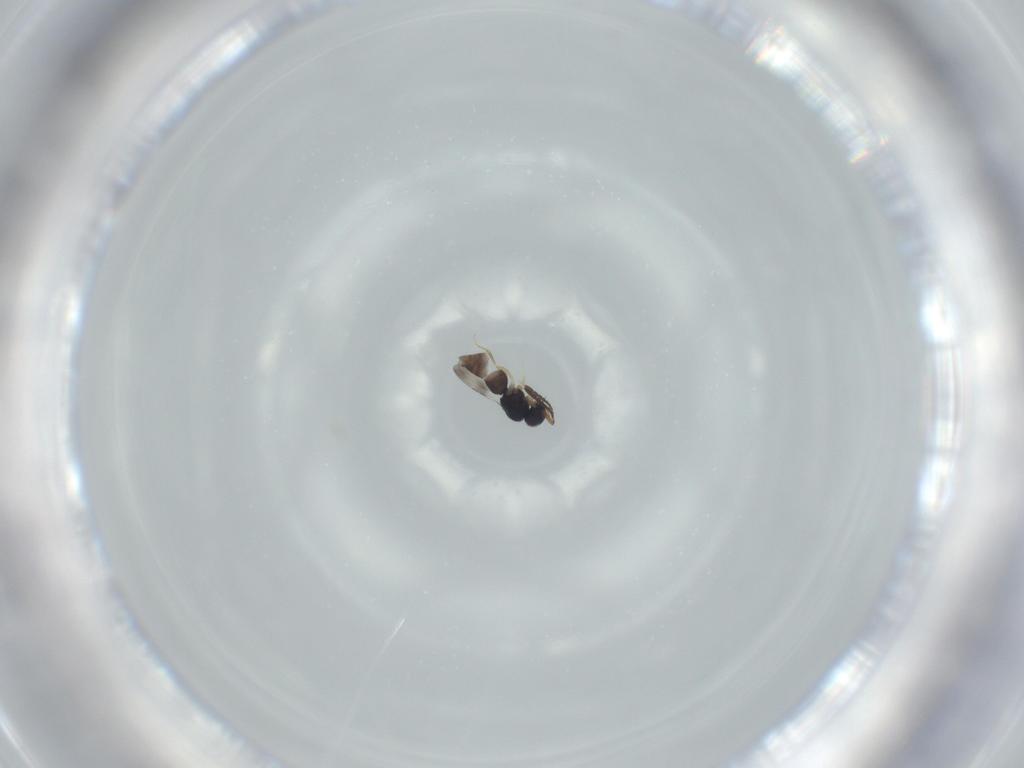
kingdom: Animalia
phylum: Arthropoda
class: Insecta
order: Hymenoptera
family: Ceraphronidae
